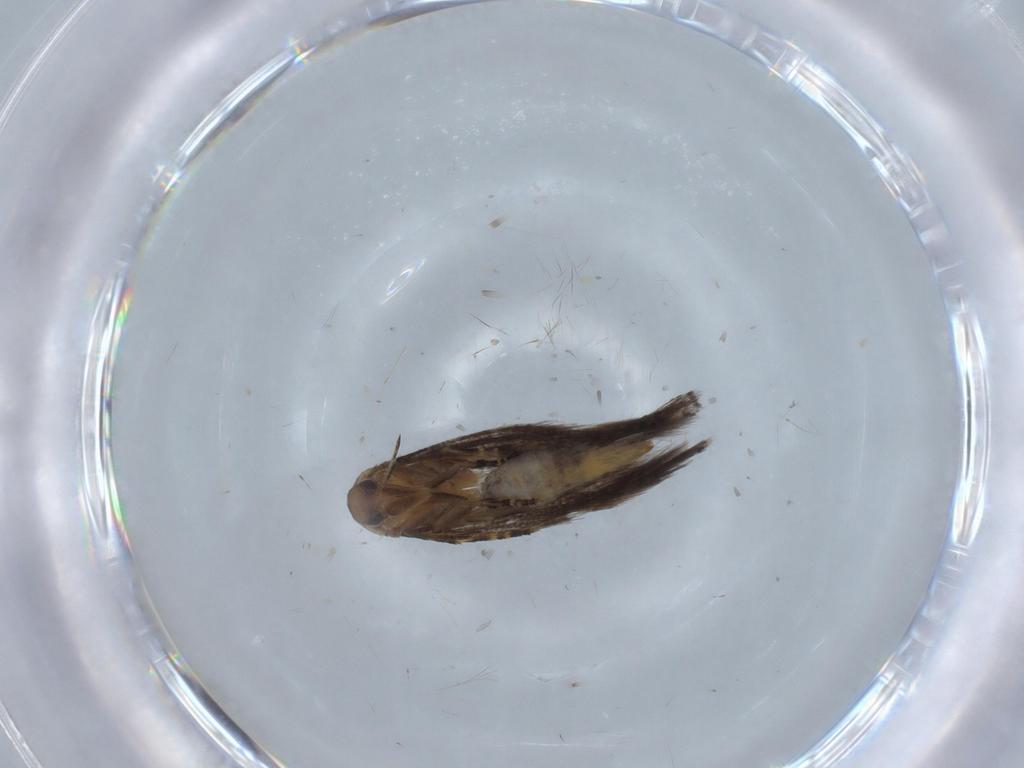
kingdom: Animalia
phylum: Arthropoda
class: Insecta
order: Lepidoptera
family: Elachistidae
